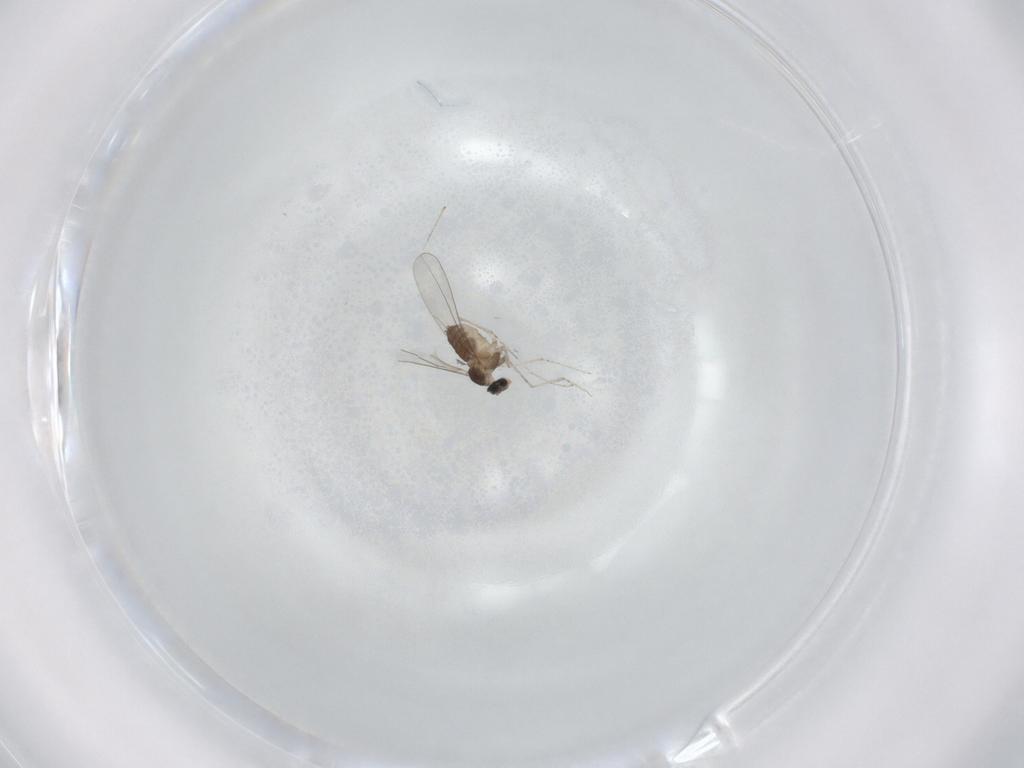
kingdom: Animalia
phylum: Arthropoda
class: Insecta
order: Diptera
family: Cecidomyiidae
